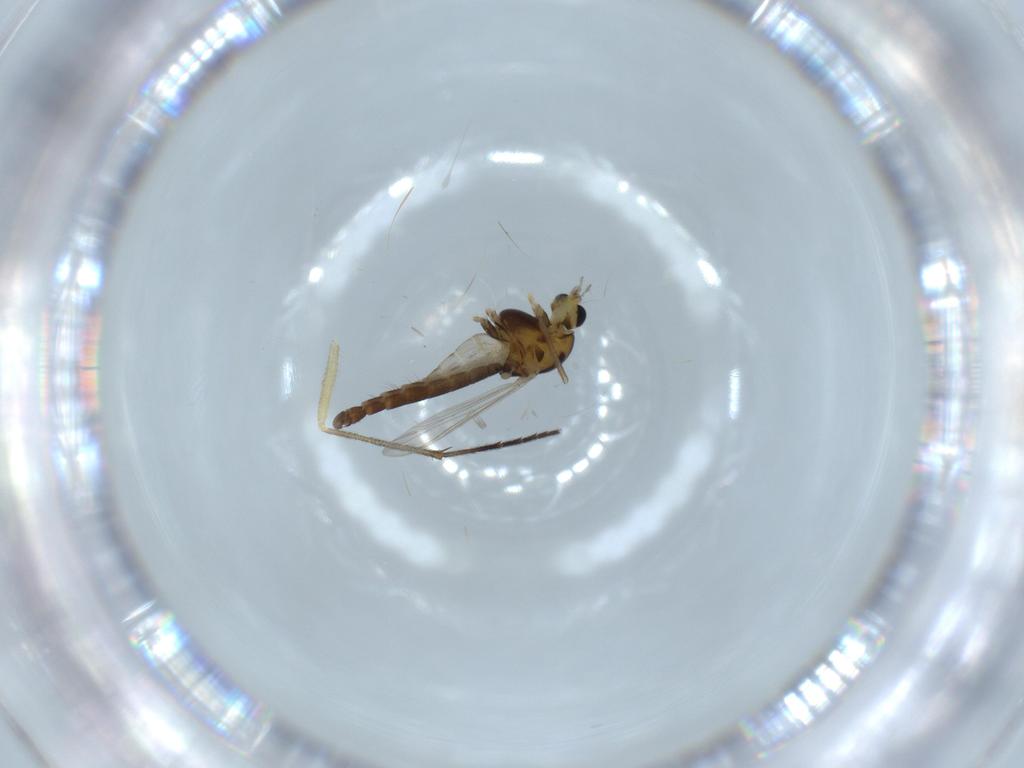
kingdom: Animalia
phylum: Arthropoda
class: Insecta
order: Diptera
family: Chironomidae
